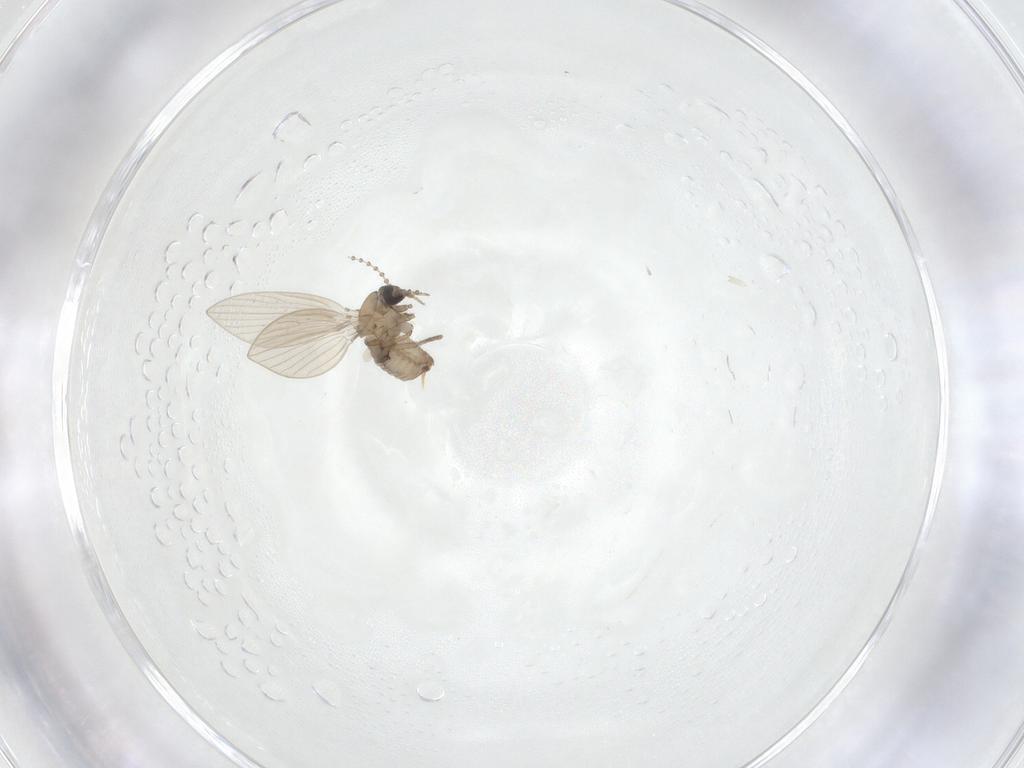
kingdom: Animalia
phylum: Arthropoda
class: Insecta
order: Diptera
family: Psychodidae
